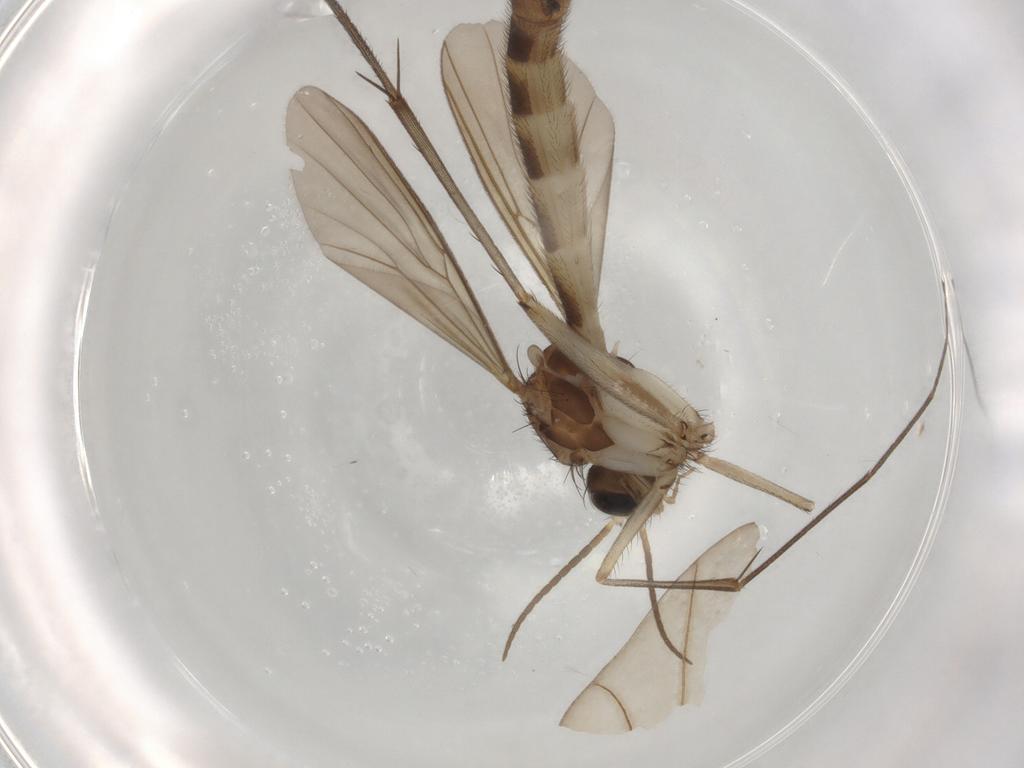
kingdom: Animalia
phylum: Arthropoda
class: Insecta
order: Diptera
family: Mycetophilidae
